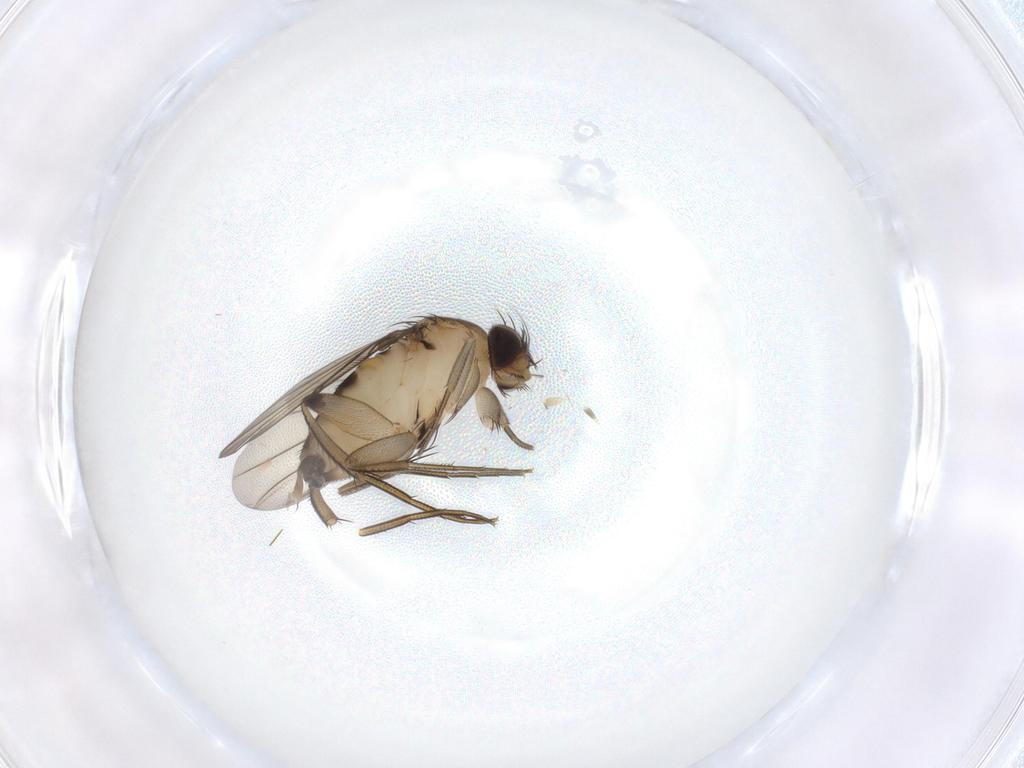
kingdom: Animalia
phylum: Arthropoda
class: Insecta
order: Diptera
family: Phoridae
